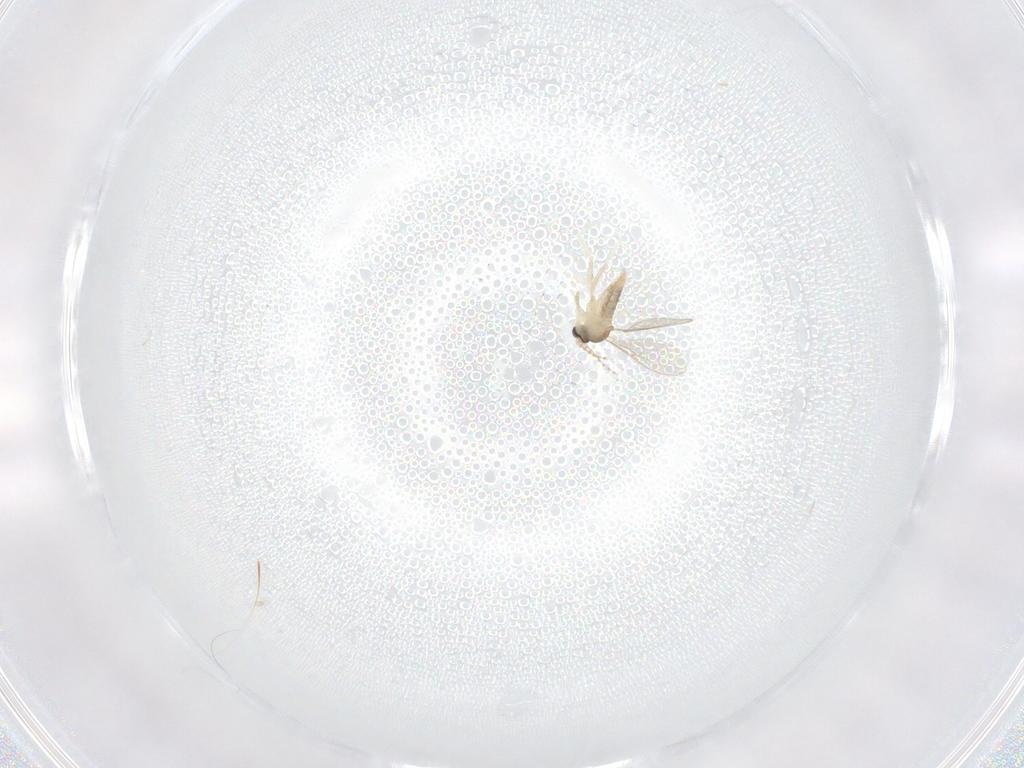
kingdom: Animalia
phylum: Arthropoda
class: Insecta
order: Diptera
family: Cecidomyiidae
